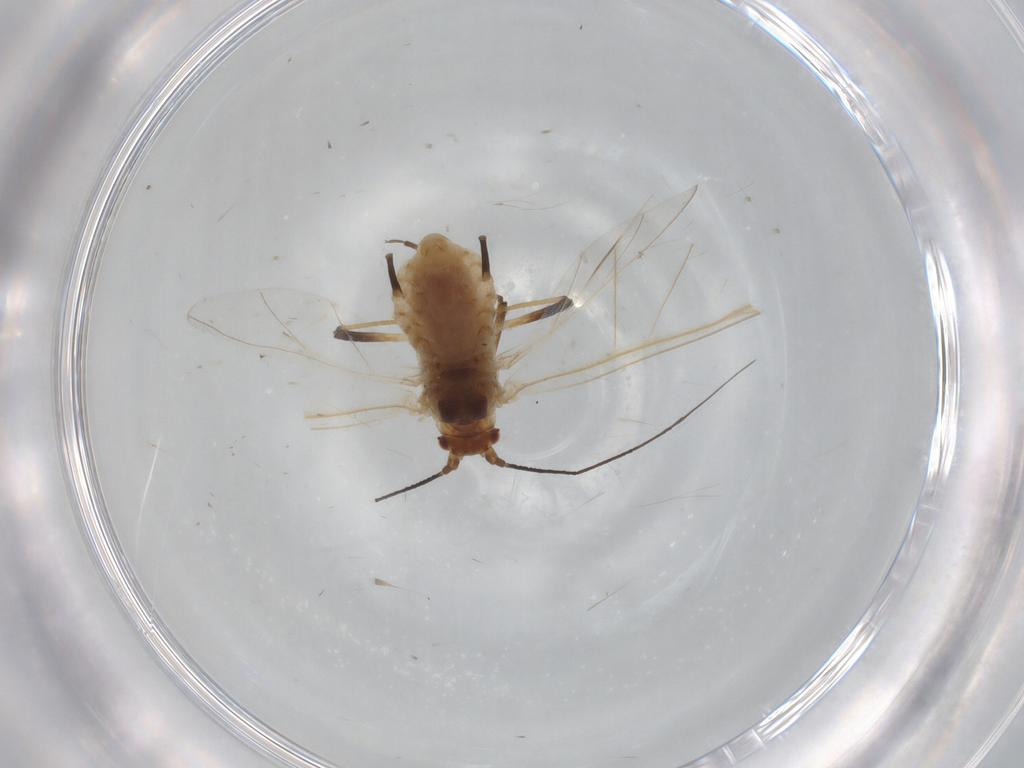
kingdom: Animalia
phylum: Arthropoda
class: Insecta
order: Hemiptera
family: Aphididae
